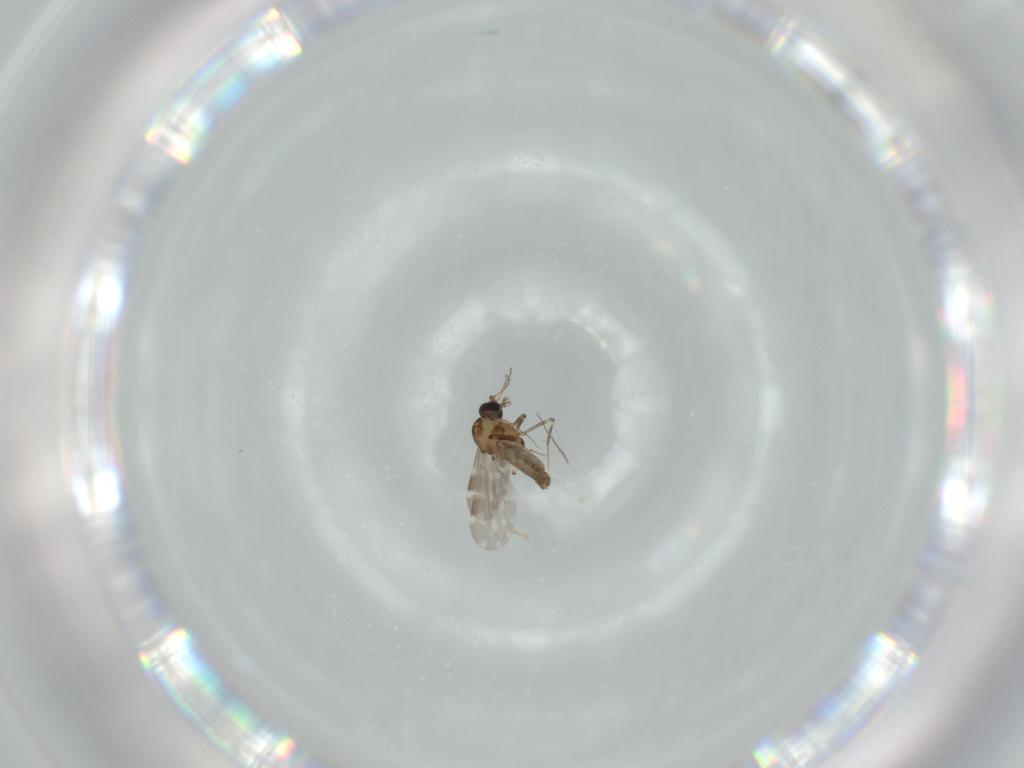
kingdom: Animalia
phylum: Arthropoda
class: Insecta
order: Diptera
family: Ceratopogonidae
